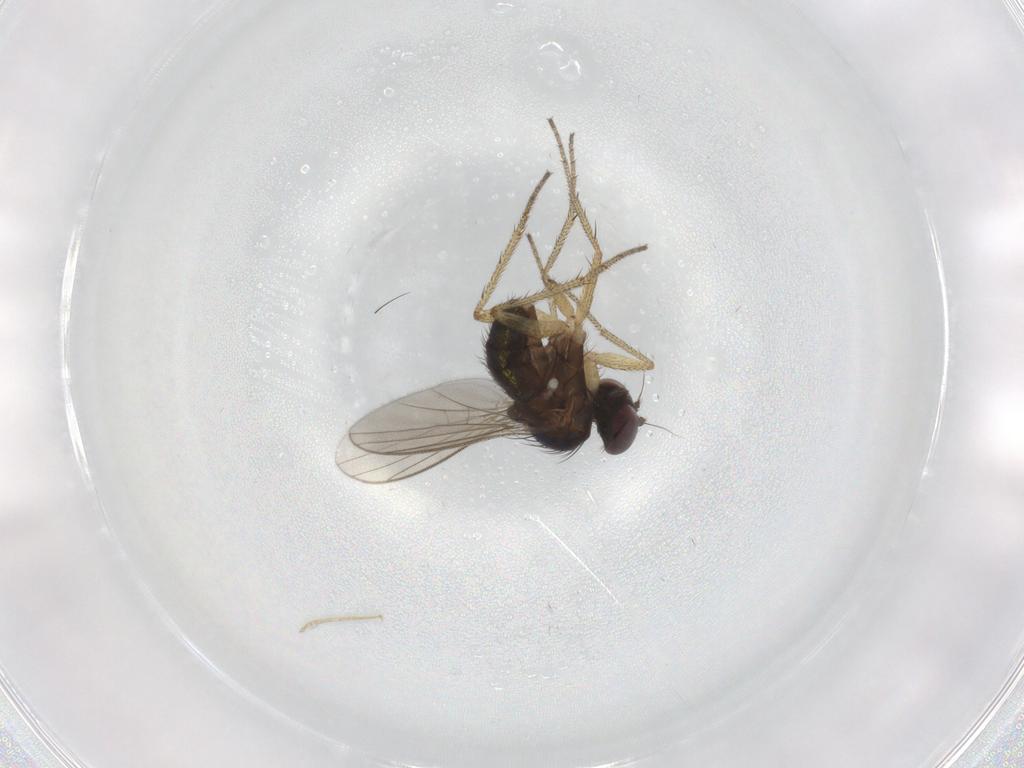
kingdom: Animalia
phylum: Arthropoda
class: Insecta
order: Diptera
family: Dolichopodidae
